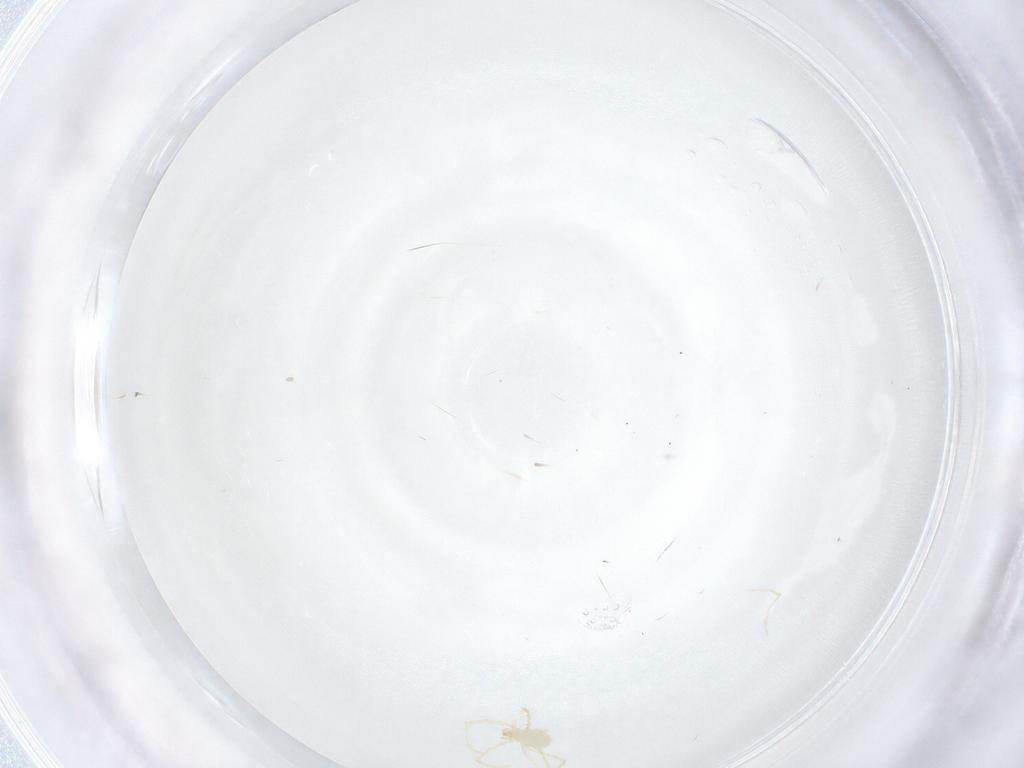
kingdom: Animalia
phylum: Arthropoda
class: Arachnida
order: Trombidiformes
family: Erythraeidae
